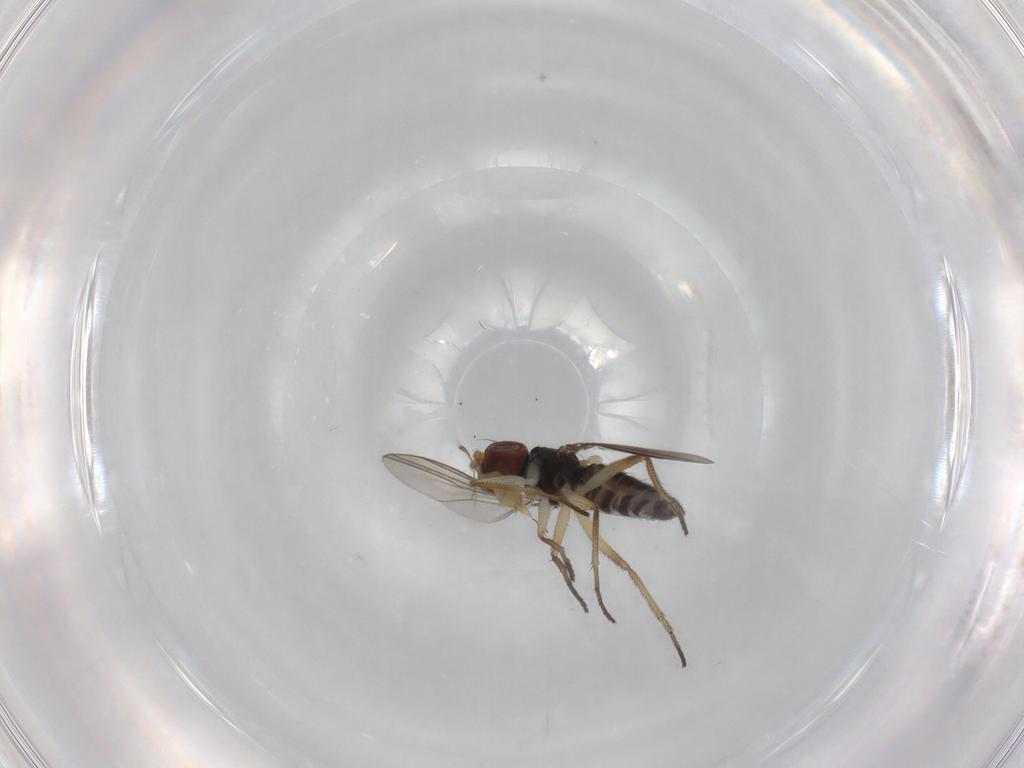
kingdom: Animalia
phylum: Arthropoda
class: Insecta
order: Diptera
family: Dolichopodidae
